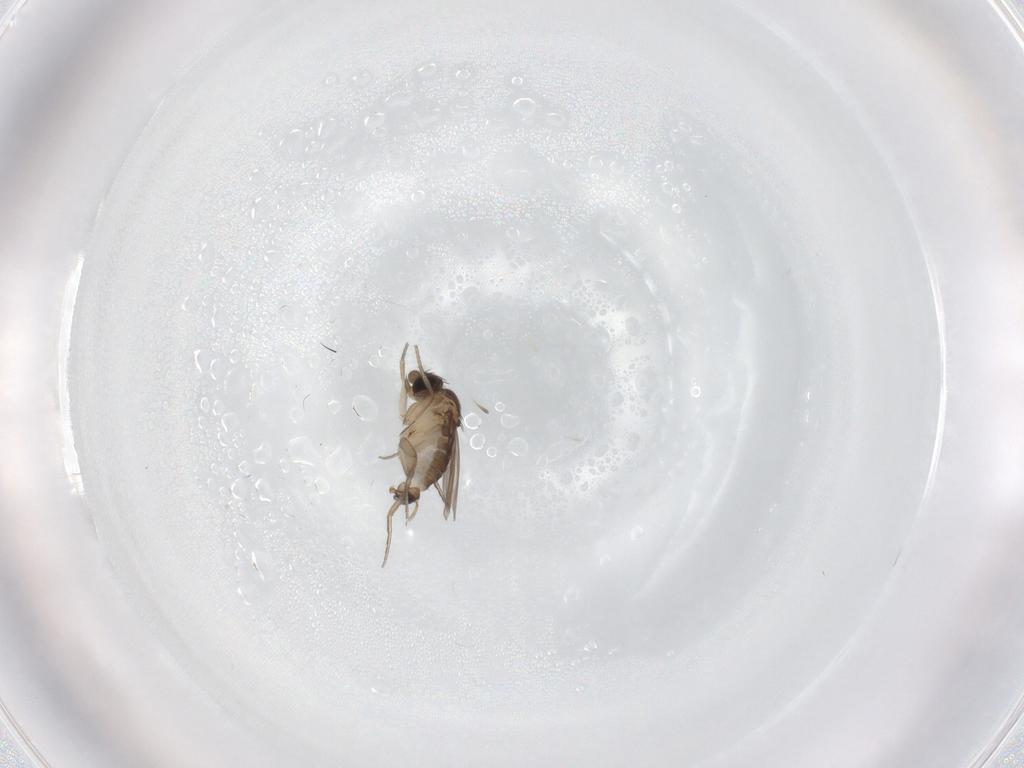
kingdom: Animalia
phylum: Arthropoda
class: Insecta
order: Diptera
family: Phoridae
